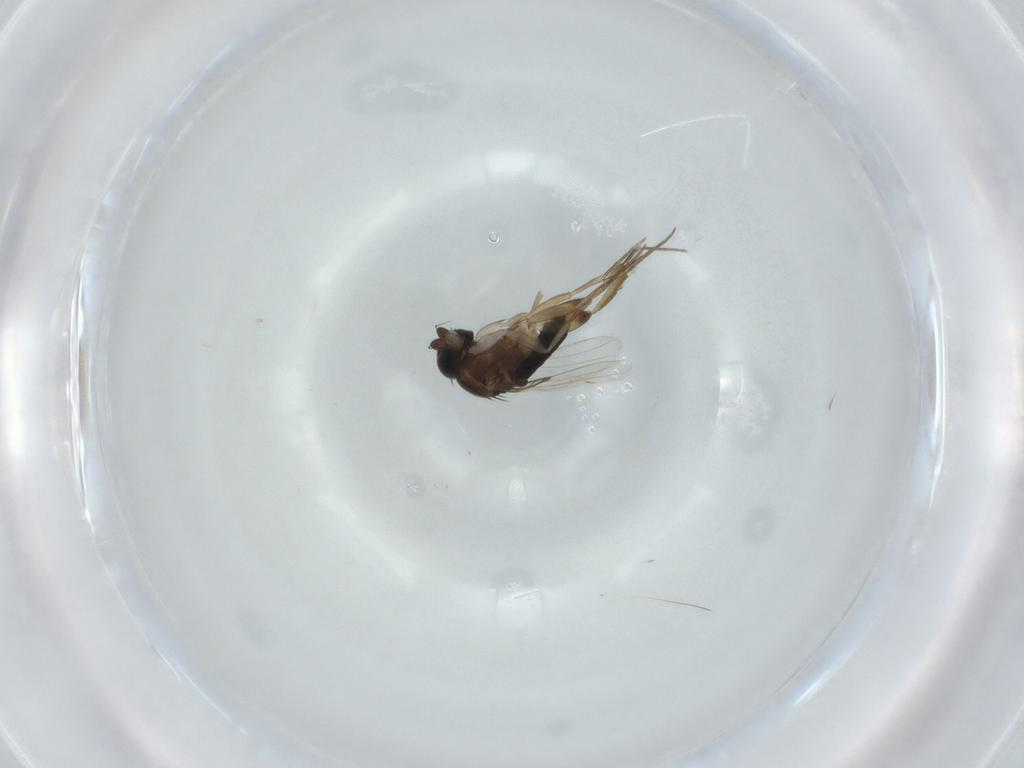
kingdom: Animalia
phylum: Arthropoda
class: Insecta
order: Diptera
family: Phoridae
